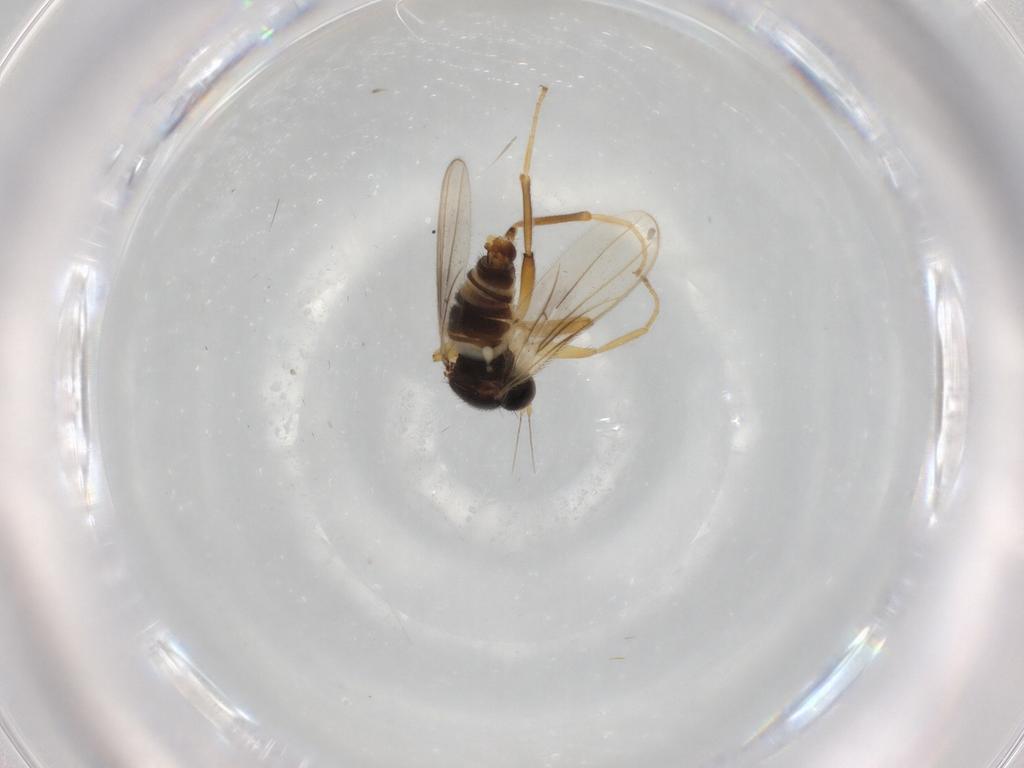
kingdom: Animalia
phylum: Arthropoda
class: Insecta
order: Diptera
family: Hybotidae
